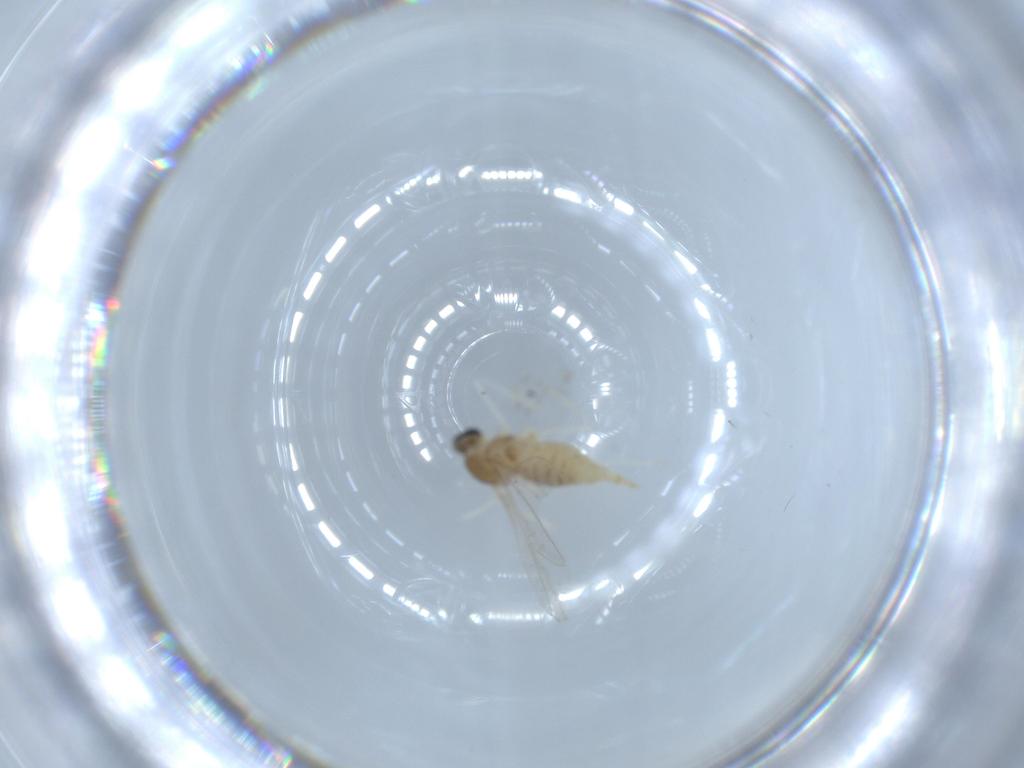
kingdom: Animalia
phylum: Arthropoda
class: Insecta
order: Diptera
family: Cecidomyiidae
